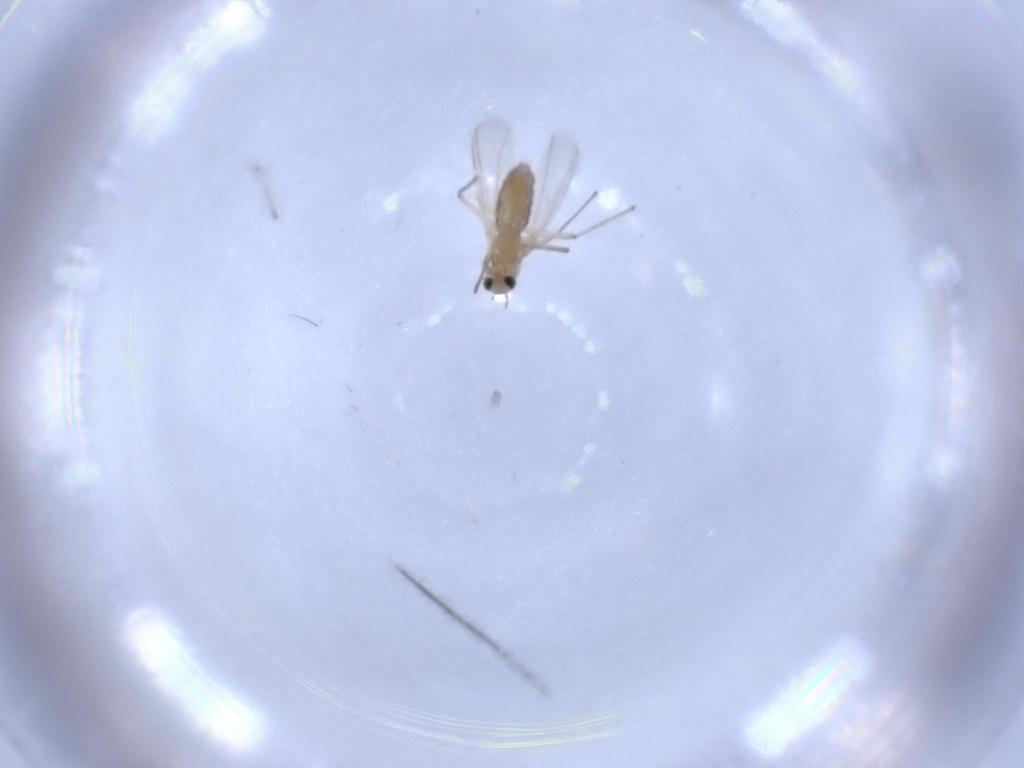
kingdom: Animalia
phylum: Arthropoda
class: Insecta
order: Diptera
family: Chironomidae
